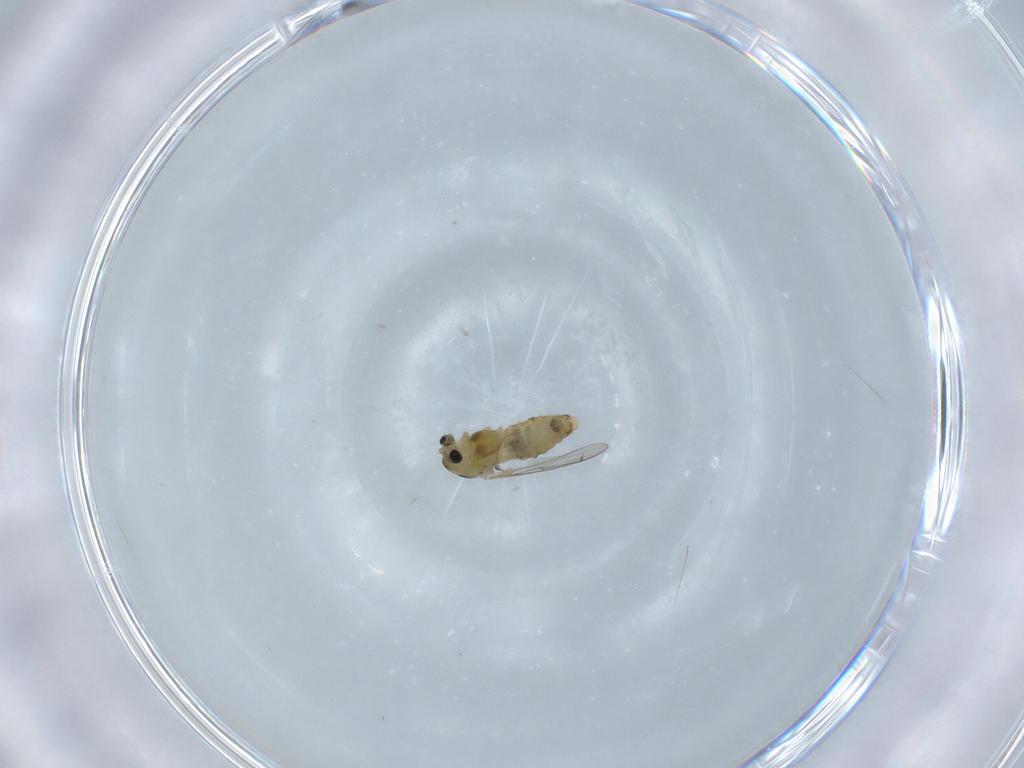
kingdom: Animalia
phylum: Arthropoda
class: Insecta
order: Diptera
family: Chironomidae
